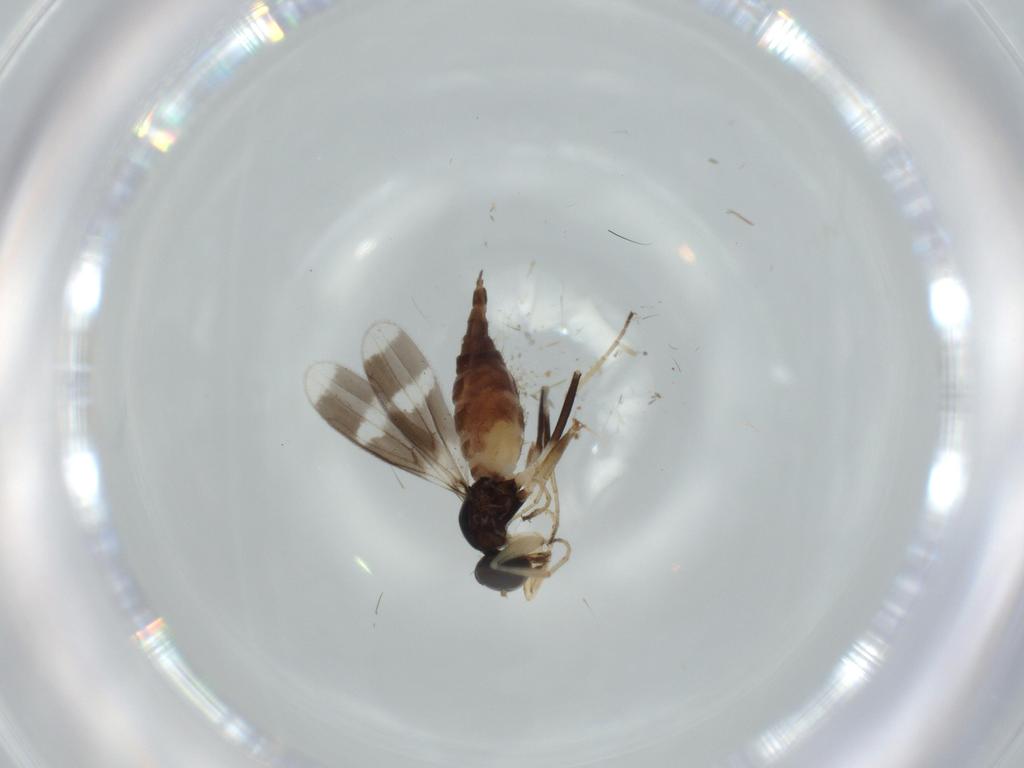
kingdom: Animalia
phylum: Arthropoda
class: Insecta
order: Diptera
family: Hybotidae
